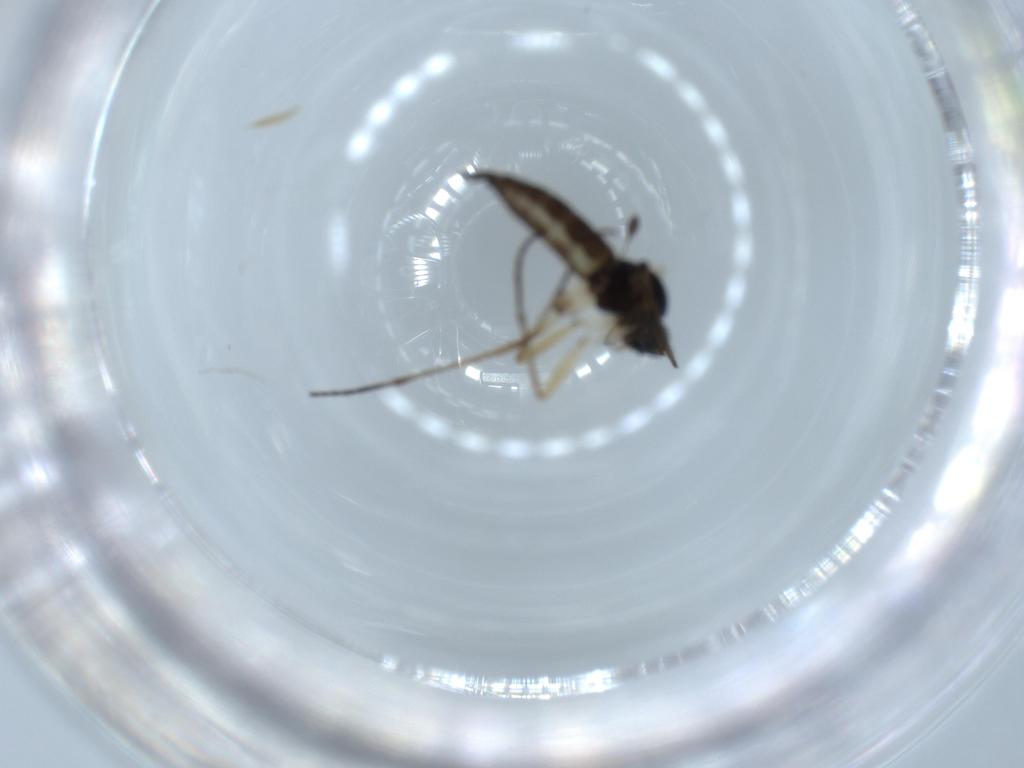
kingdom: Animalia
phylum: Arthropoda
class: Insecta
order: Diptera
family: Sciaridae
